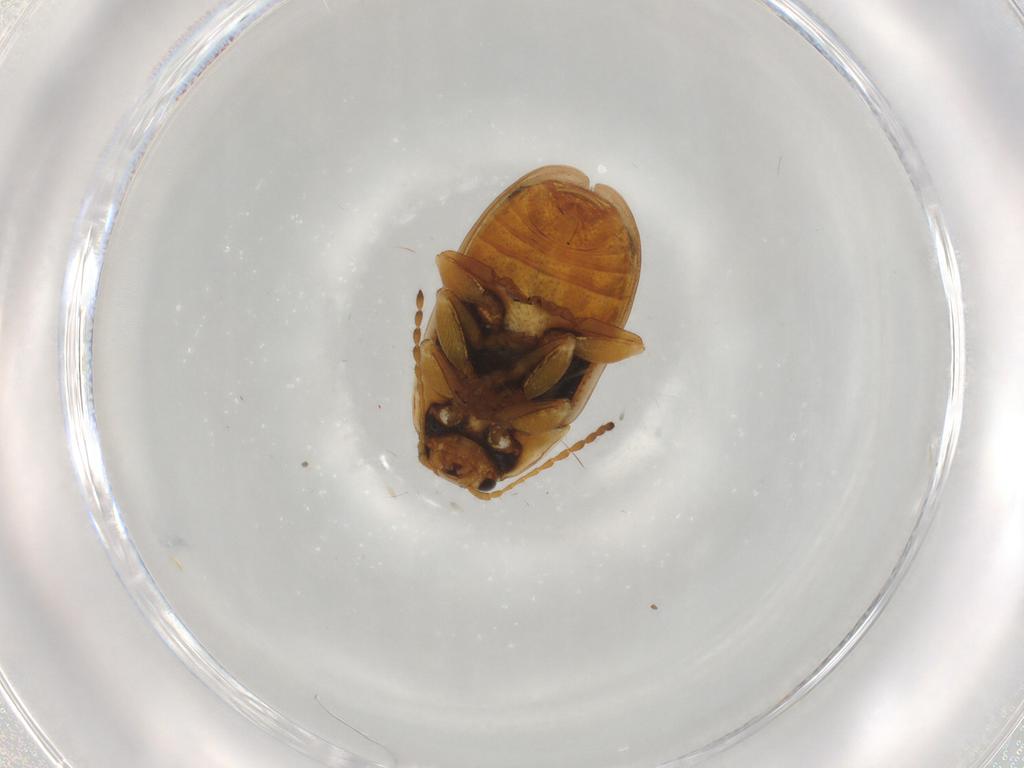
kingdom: Animalia
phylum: Arthropoda
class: Insecta
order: Coleoptera
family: Chrysomelidae
